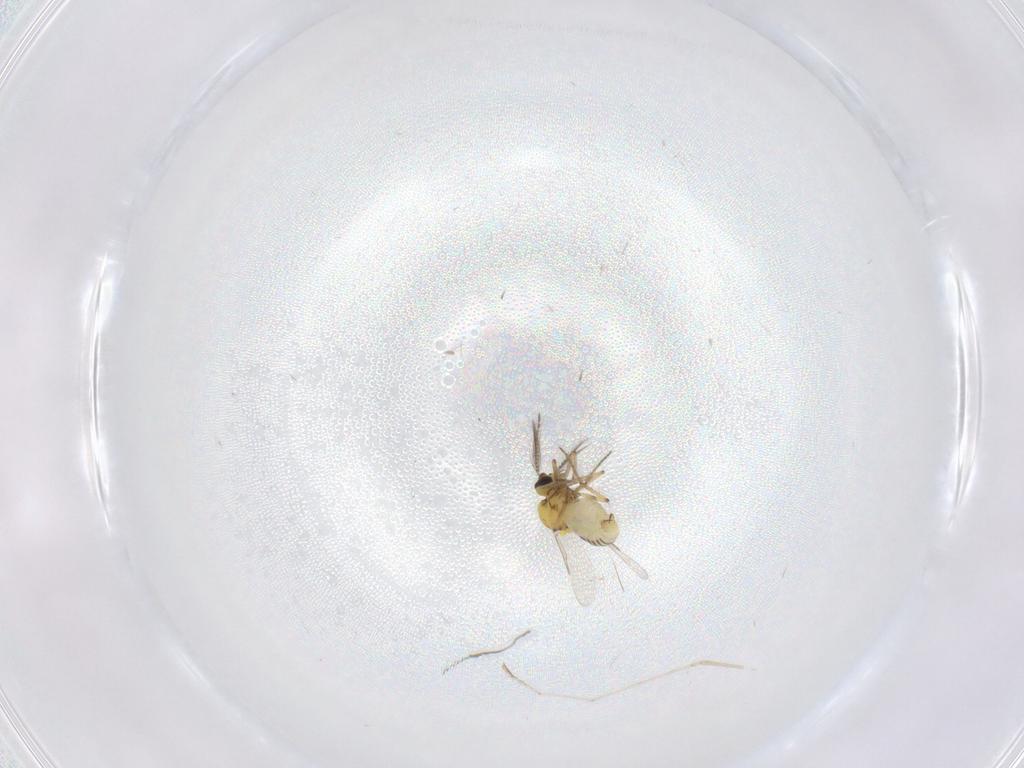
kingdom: Animalia
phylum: Arthropoda
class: Insecta
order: Diptera
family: Cecidomyiidae
